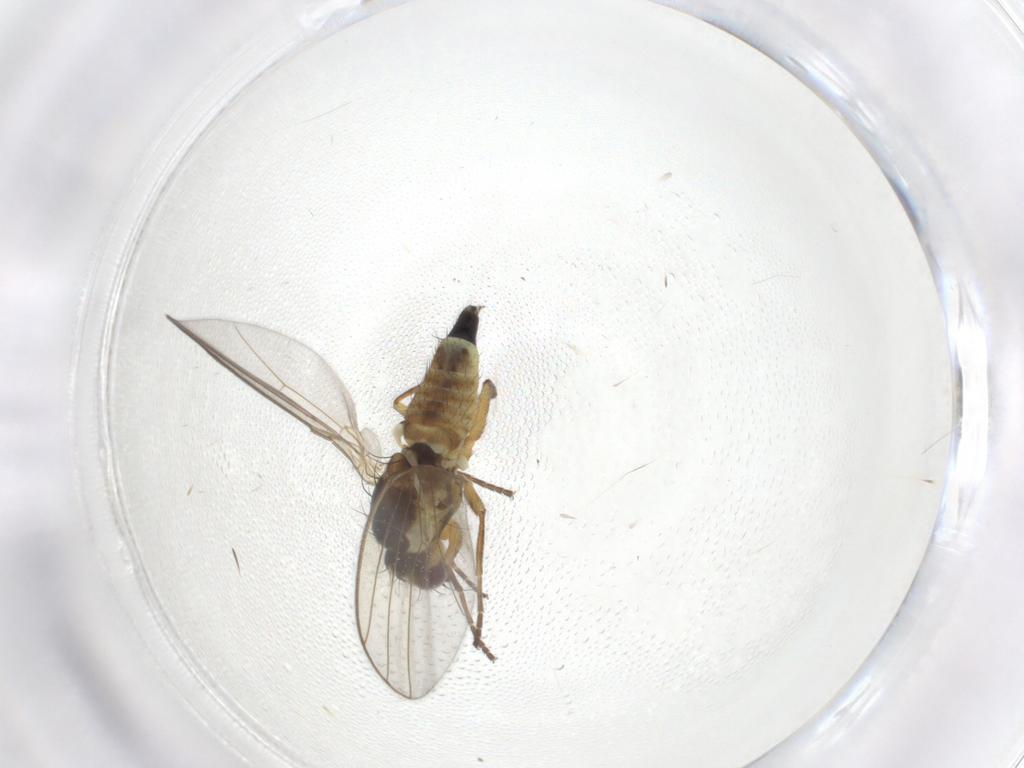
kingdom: Animalia
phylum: Arthropoda
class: Insecta
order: Diptera
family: Agromyzidae
